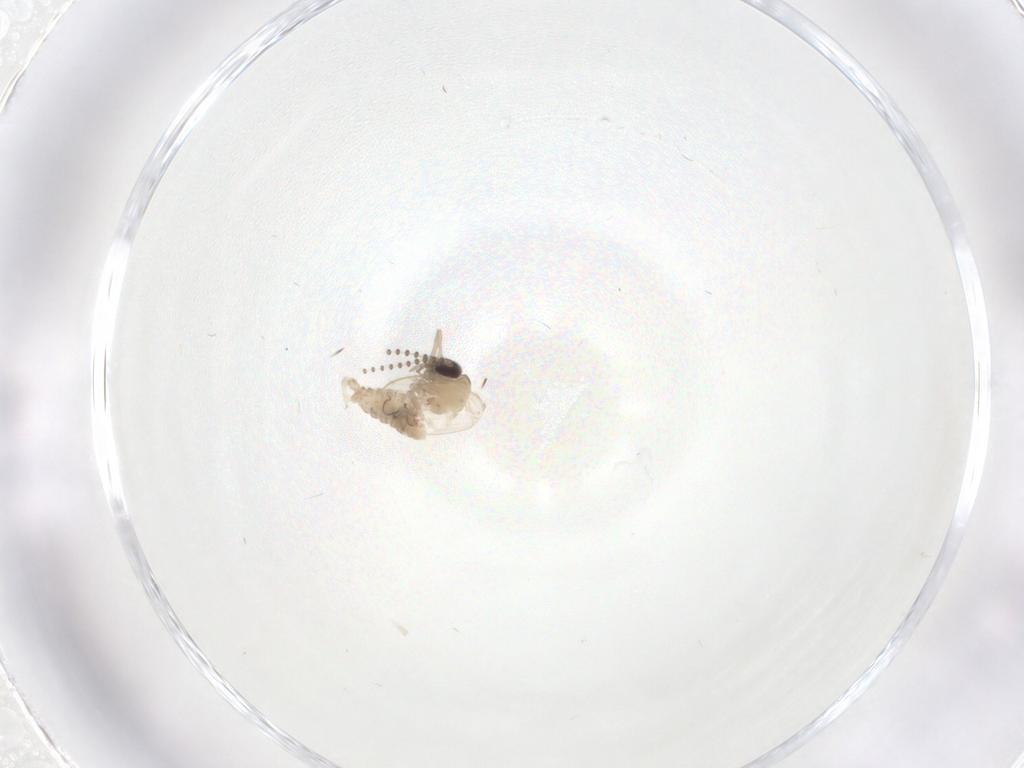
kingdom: Animalia
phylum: Arthropoda
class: Insecta
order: Diptera
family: Psychodidae
